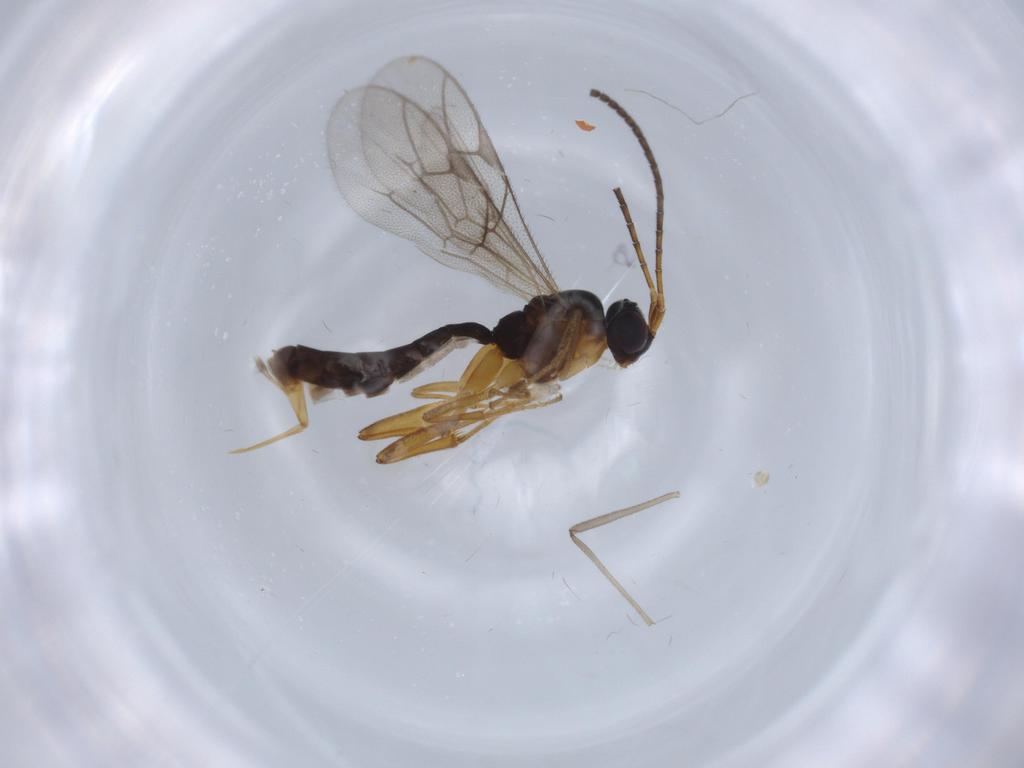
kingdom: Animalia
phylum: Arthropoda
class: Insecta
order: Hymenoptera
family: Ichneumonidae
